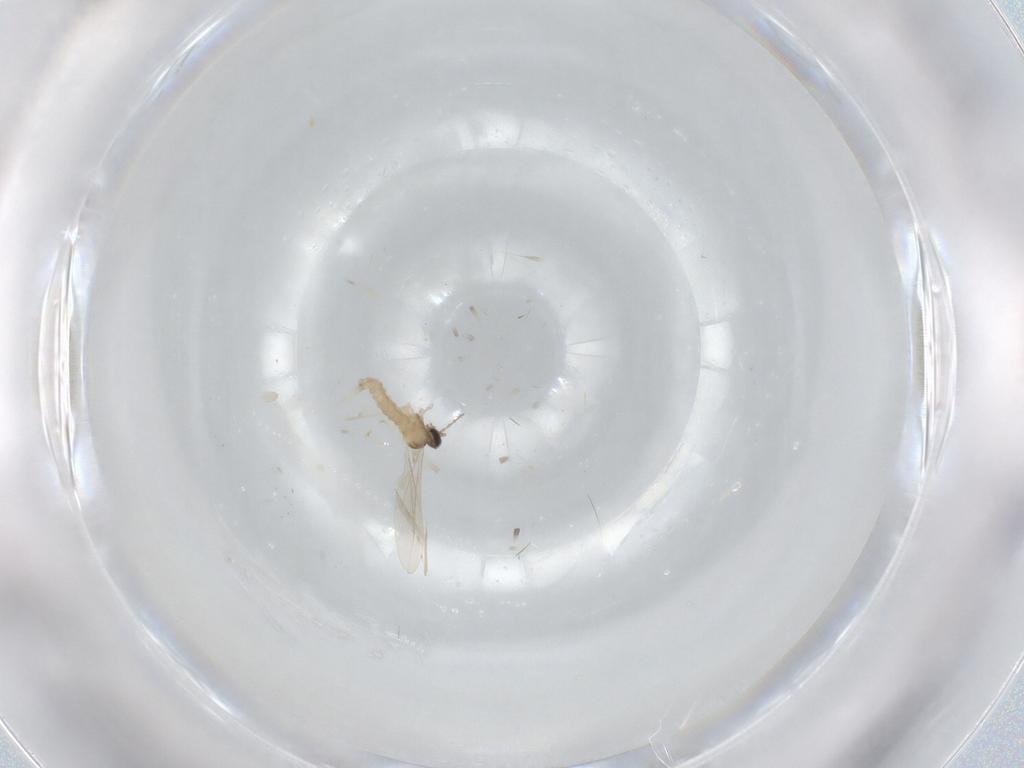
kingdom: Animalia
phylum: Arthropoda
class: Insecta
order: Diptera
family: Cecidomyiidae
